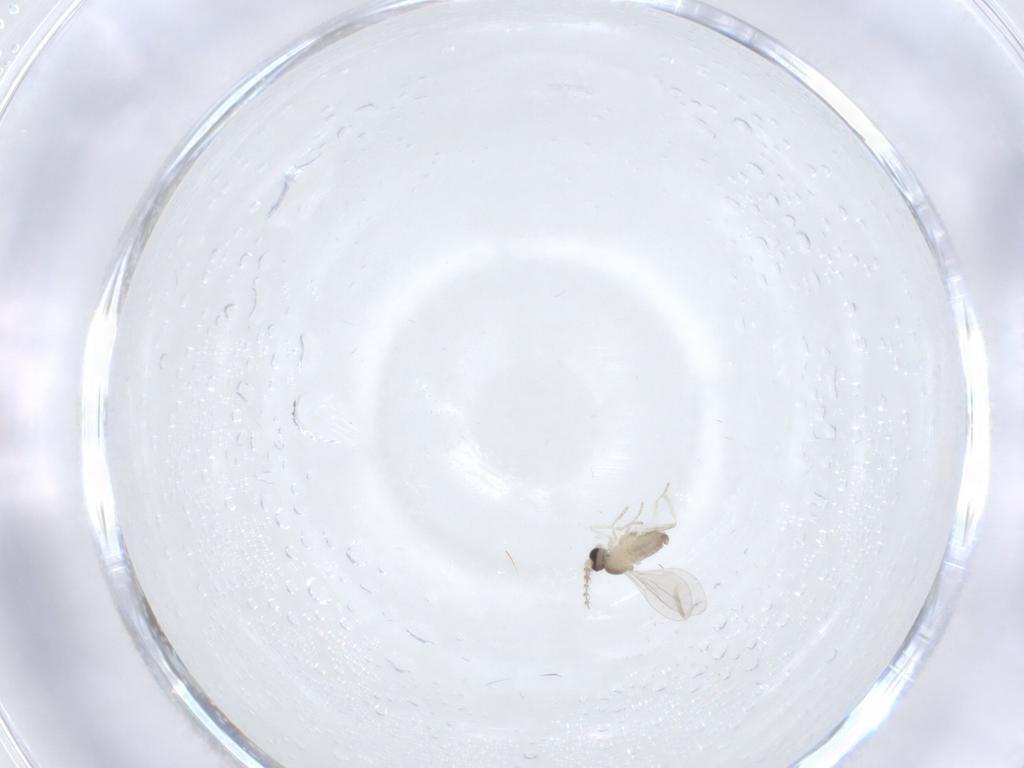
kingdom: Animalia
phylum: Arthropoda
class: Insecta
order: Diptera
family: Cecidomyiidae
